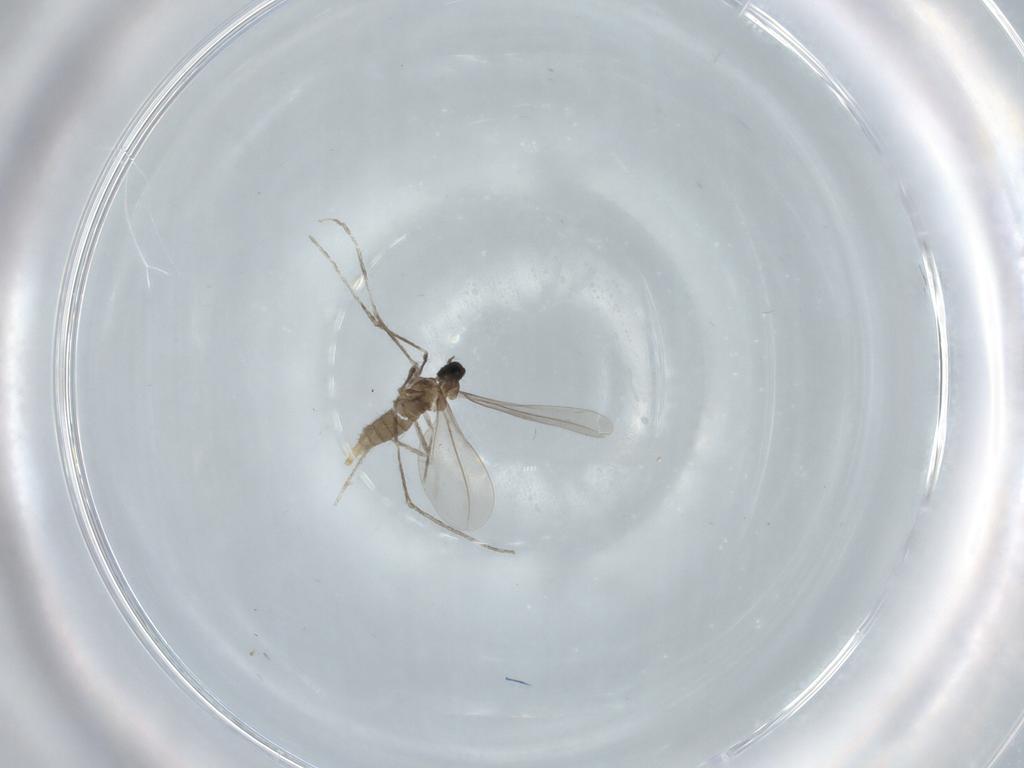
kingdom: Animalia
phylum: Arthropoda
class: Insecta
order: Diptera
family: Cecidomyiidae
